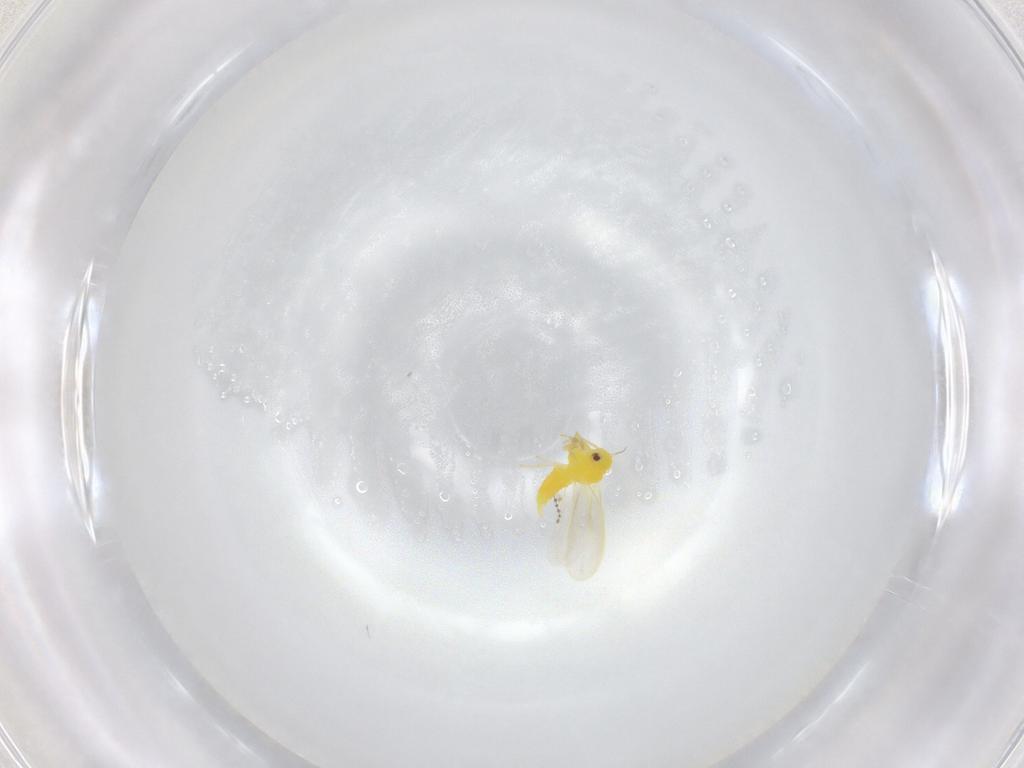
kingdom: Animalia
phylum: Arthropoda
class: Insecta
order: Hemiptera
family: Aleyrodidae
